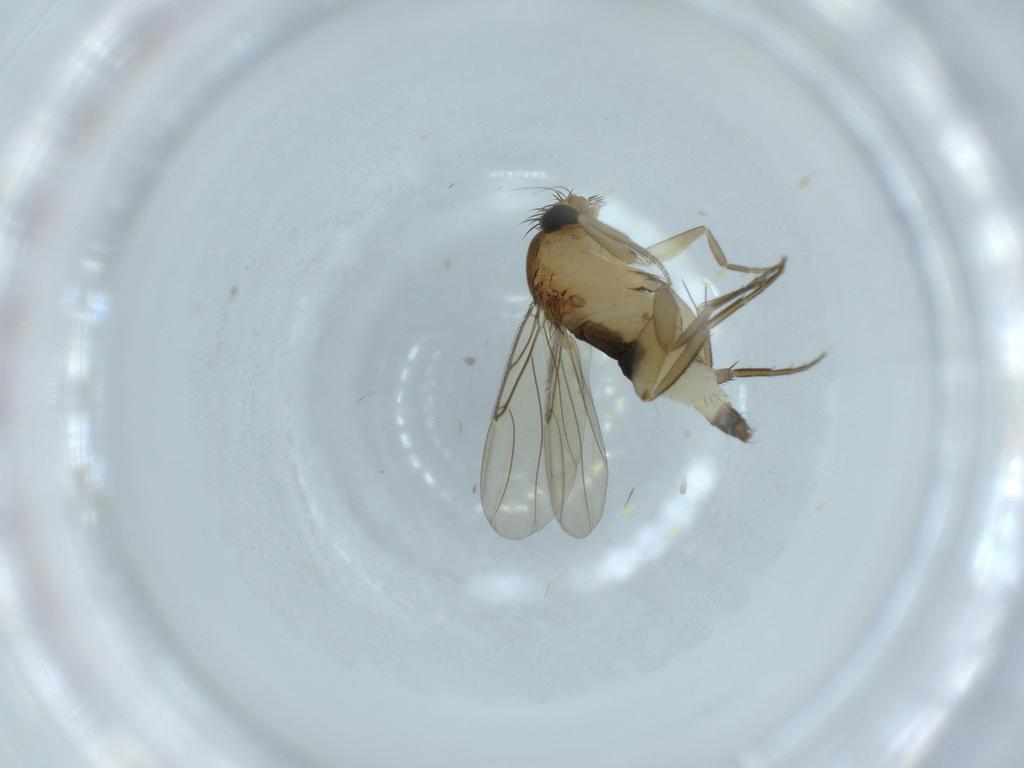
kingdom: Animalia
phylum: Arthropoda
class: Insecta
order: Diptera
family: Phoridae
